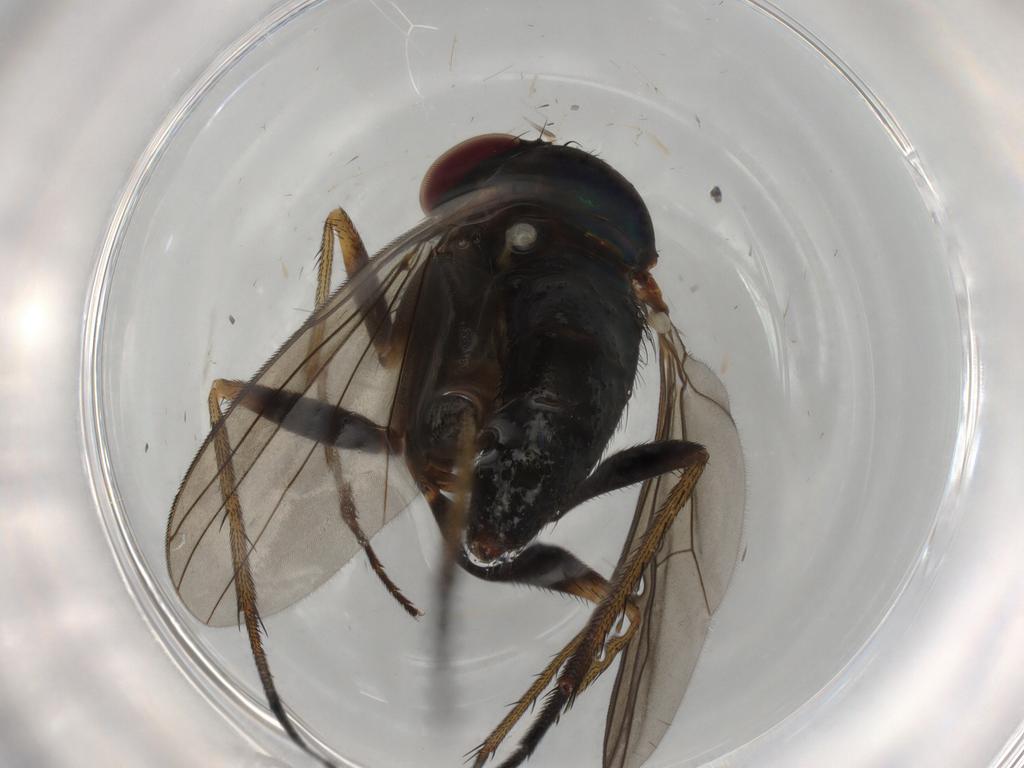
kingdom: Animalia
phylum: Arthropoda
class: Insecta
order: Diptera
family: Dolichopodidae
